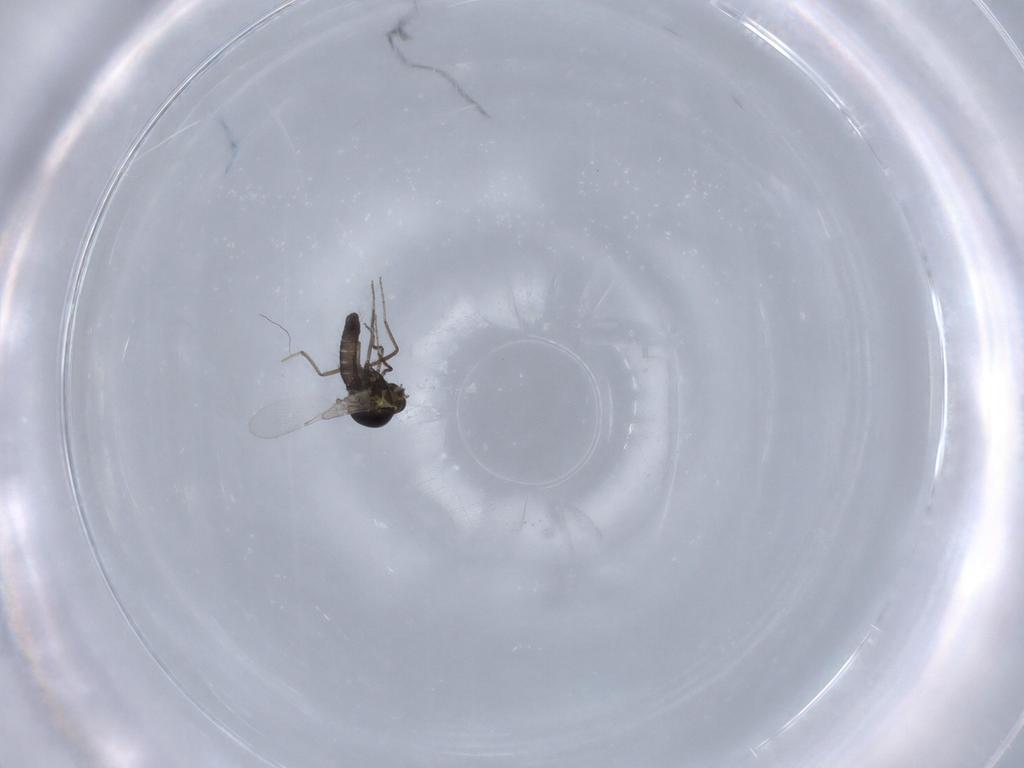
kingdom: Animalia
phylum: Arthropoda
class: Insecta
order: Diptera
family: Ceratopogonidae
